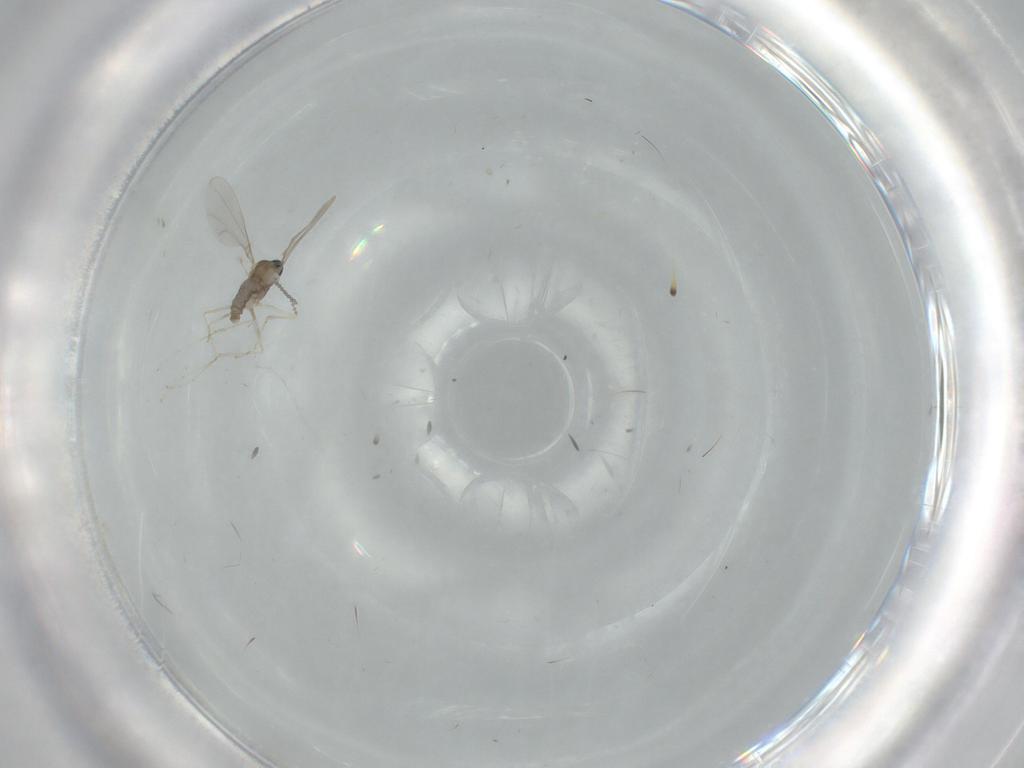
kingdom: Animalia
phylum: Arthropoda
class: Insecta
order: Diptera
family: Cecidomyiidae
